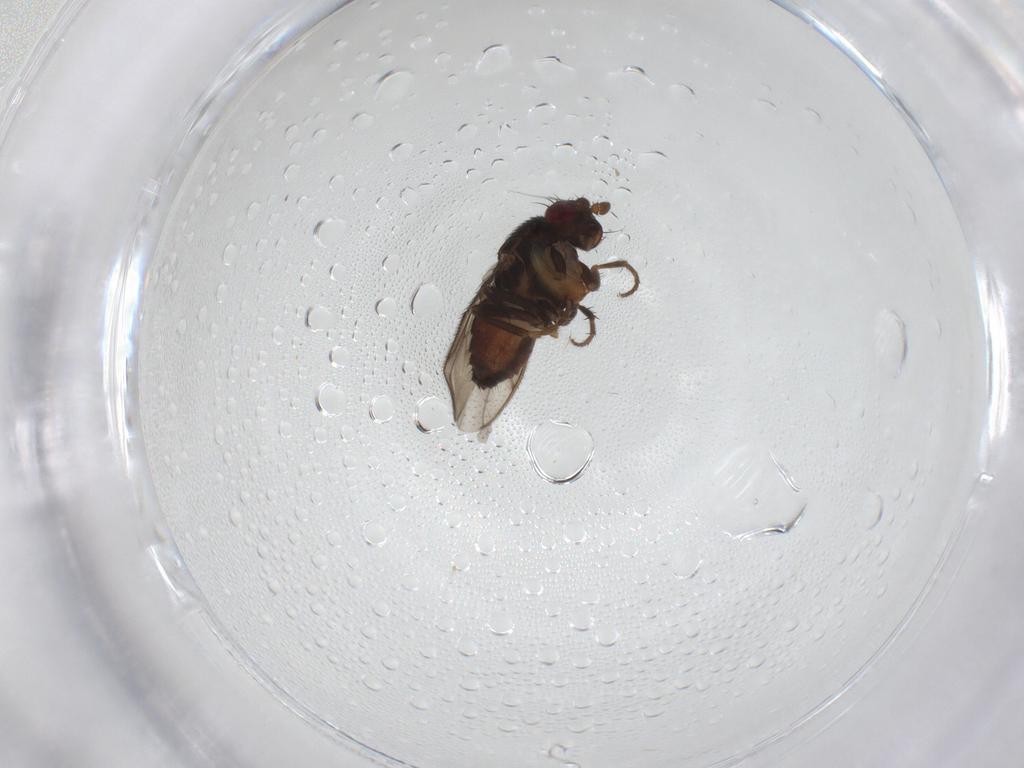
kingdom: Animalia
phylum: Arthropoda
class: Insecta
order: Diptera
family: Sphaeroceridae
